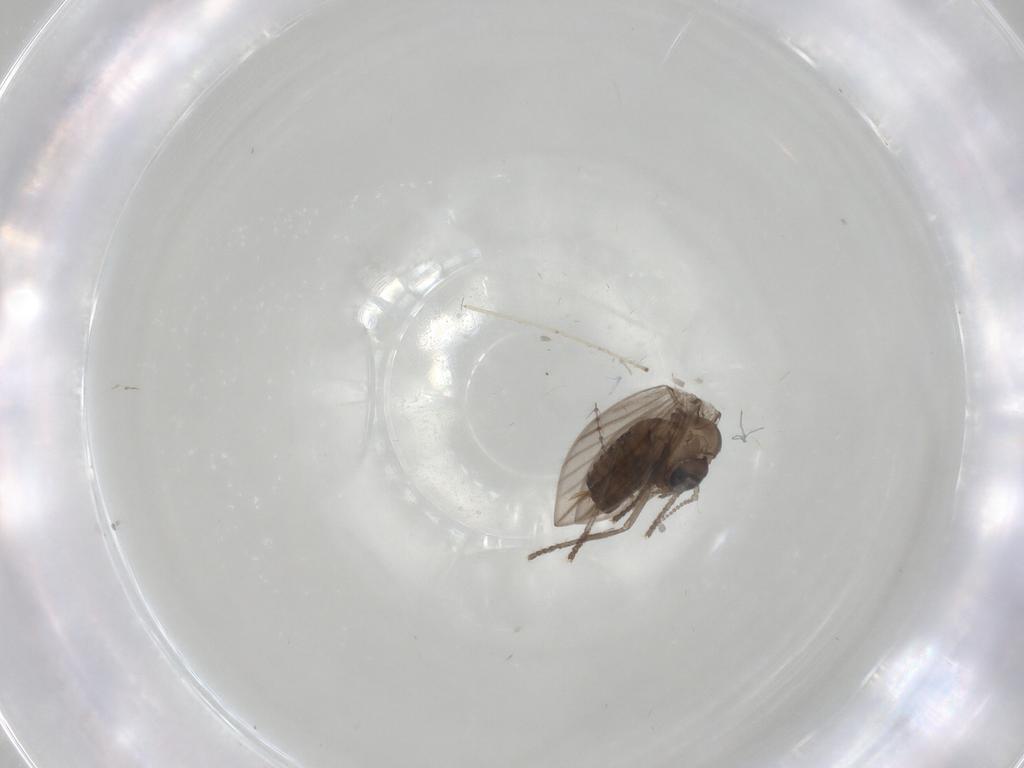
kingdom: Animalia
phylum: Arthropoda
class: Insecta
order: Diptera
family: Psychodidae
